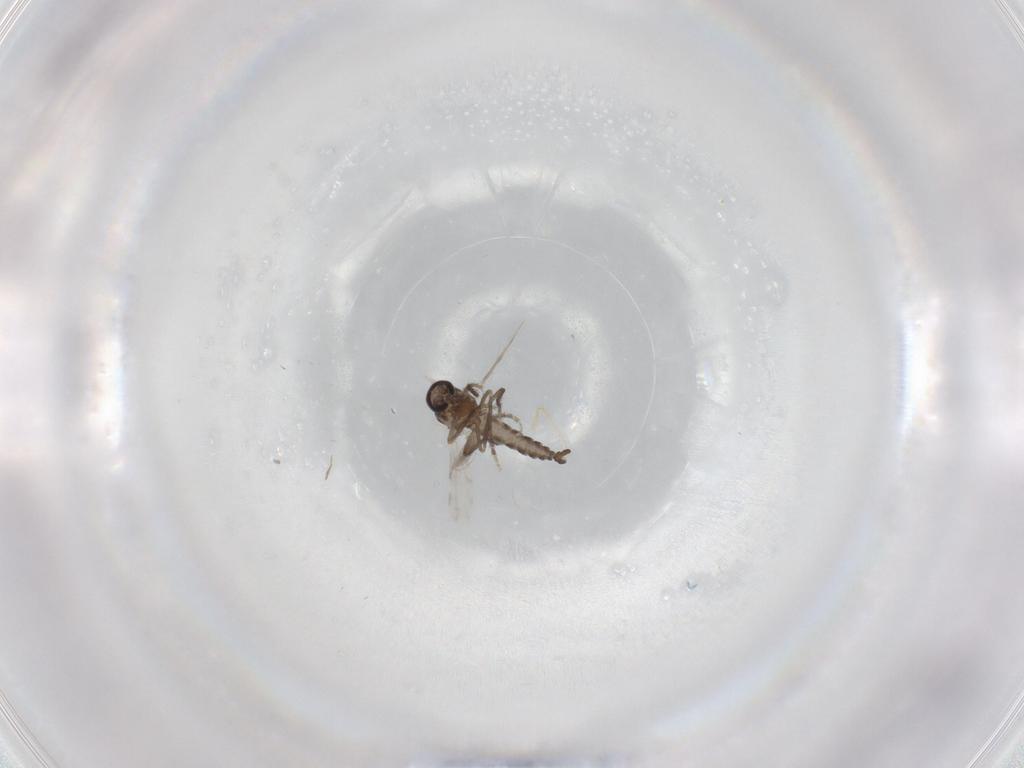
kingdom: Animalia
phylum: Arthropoda
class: Insecta
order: Diptera
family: Ceratopogonidae
